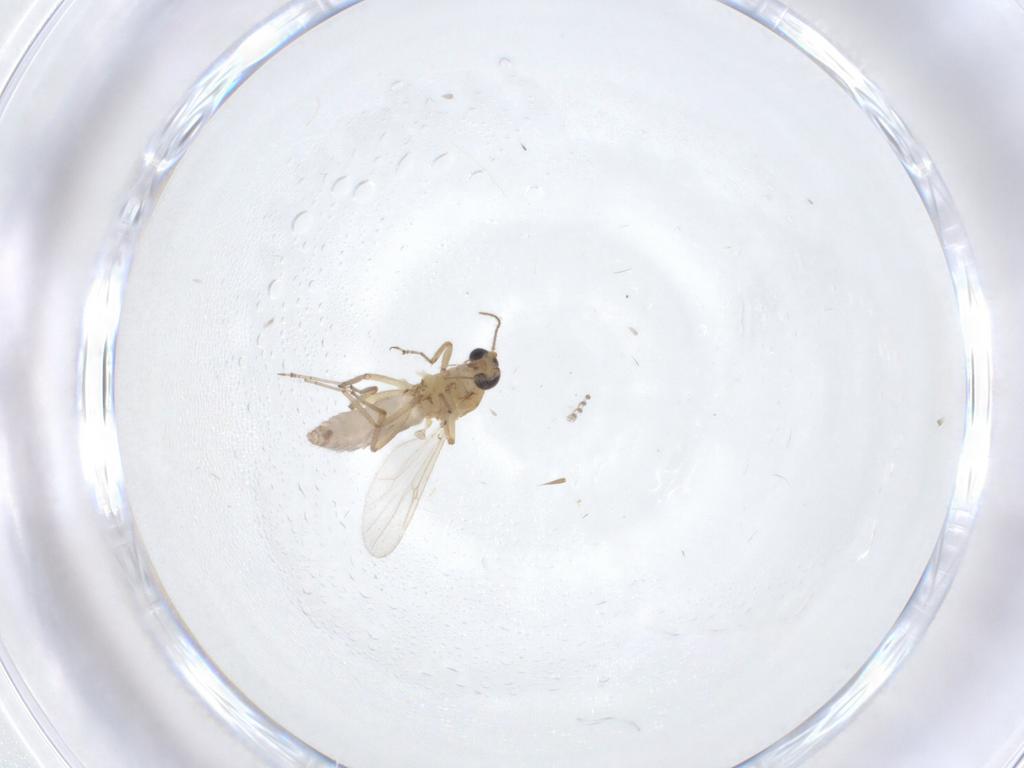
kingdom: Animalia
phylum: Arthropoda
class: Insecta
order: Diptera
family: Ceratopogonidae
